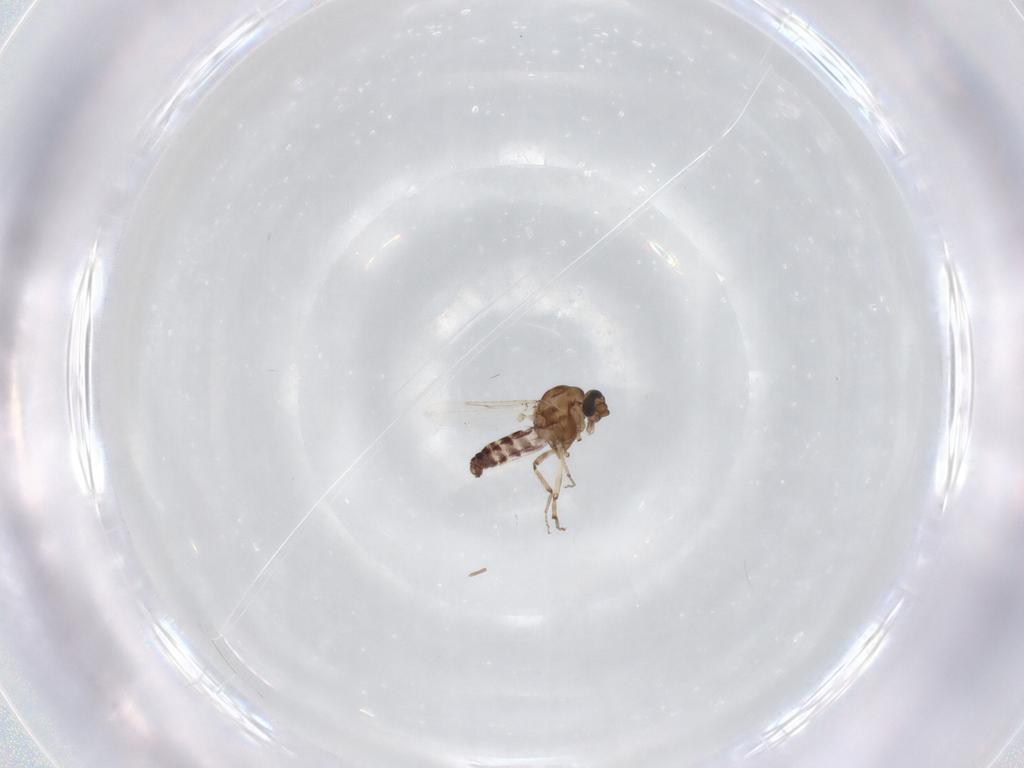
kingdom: Animalia
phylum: Arthropoda
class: Insecta
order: Diptera
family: Ceratopogonidae
